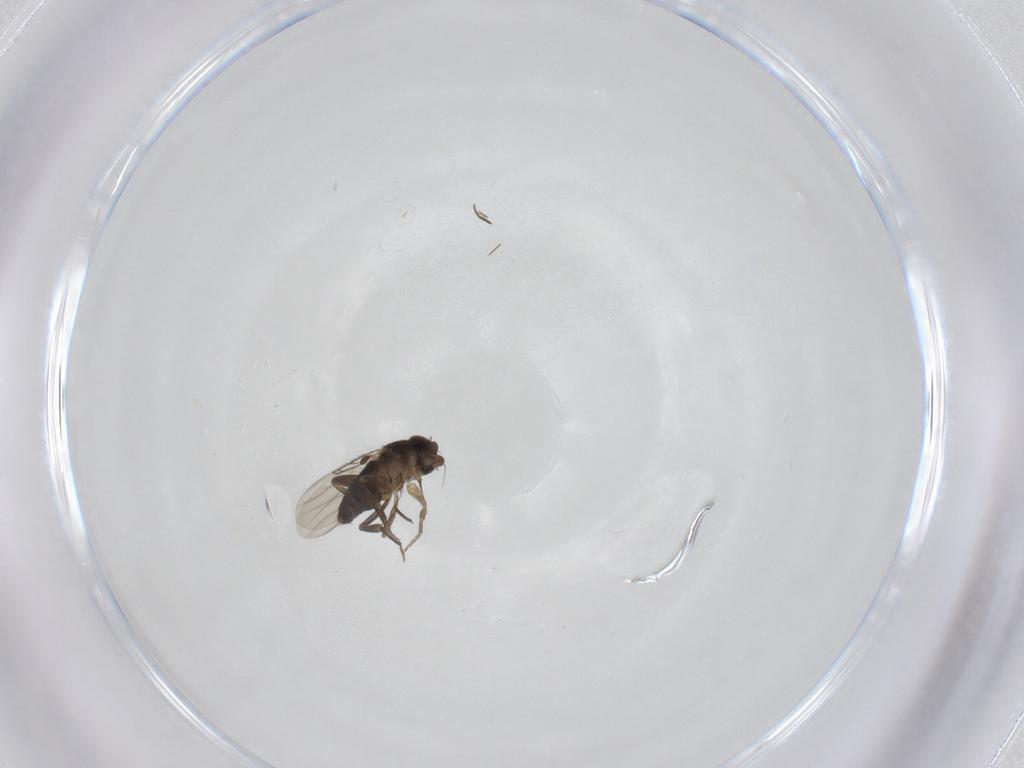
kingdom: Animalia
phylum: Arthropoda
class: Insecta
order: Diptera
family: Phoridae
